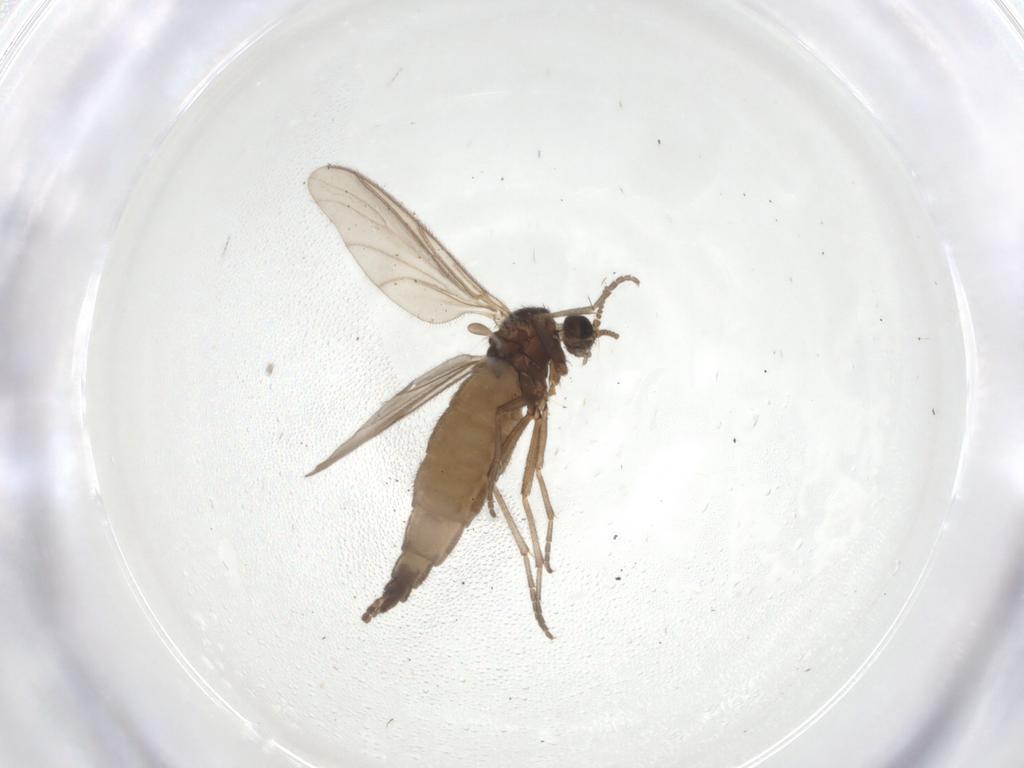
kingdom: Animalia
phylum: Arthropoda
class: Insecta
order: Diptera
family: Sciaridae
